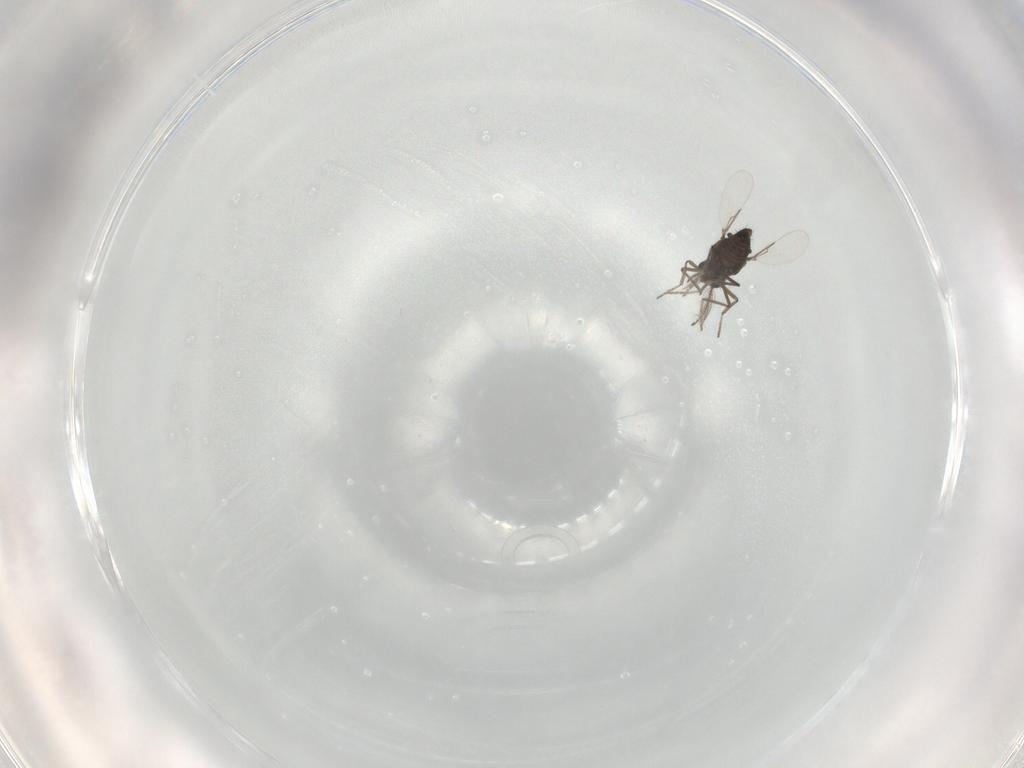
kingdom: Animalia
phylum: Arthropoda
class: Insecta
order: Diptera
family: Ceratopogonidae
